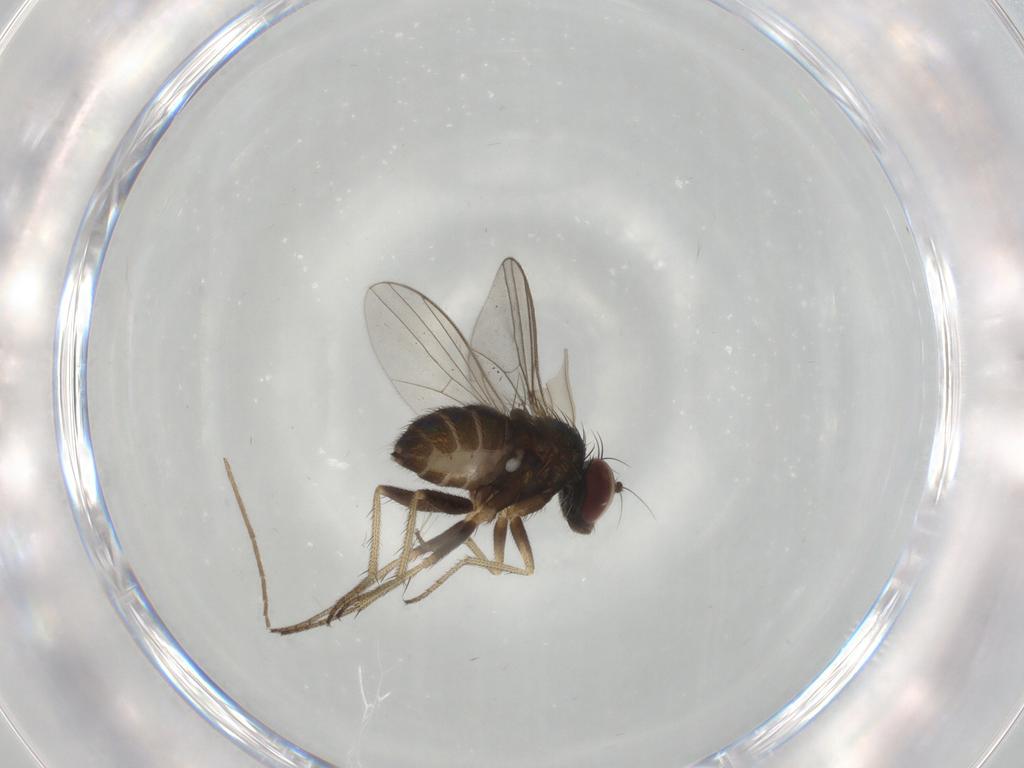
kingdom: Animalia
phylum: Arthropoda
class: Insecta
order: Diptera
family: Dolichopodidae
